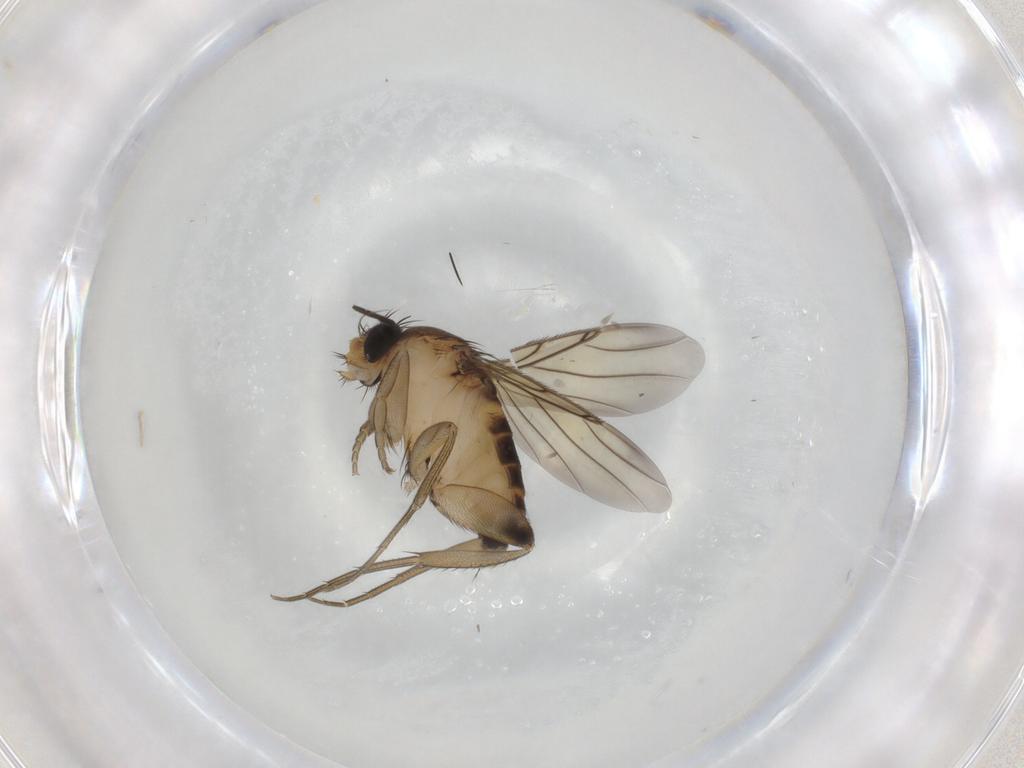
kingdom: Animalia
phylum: Arthropoda
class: Insecta
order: Diptera
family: Phoridae
